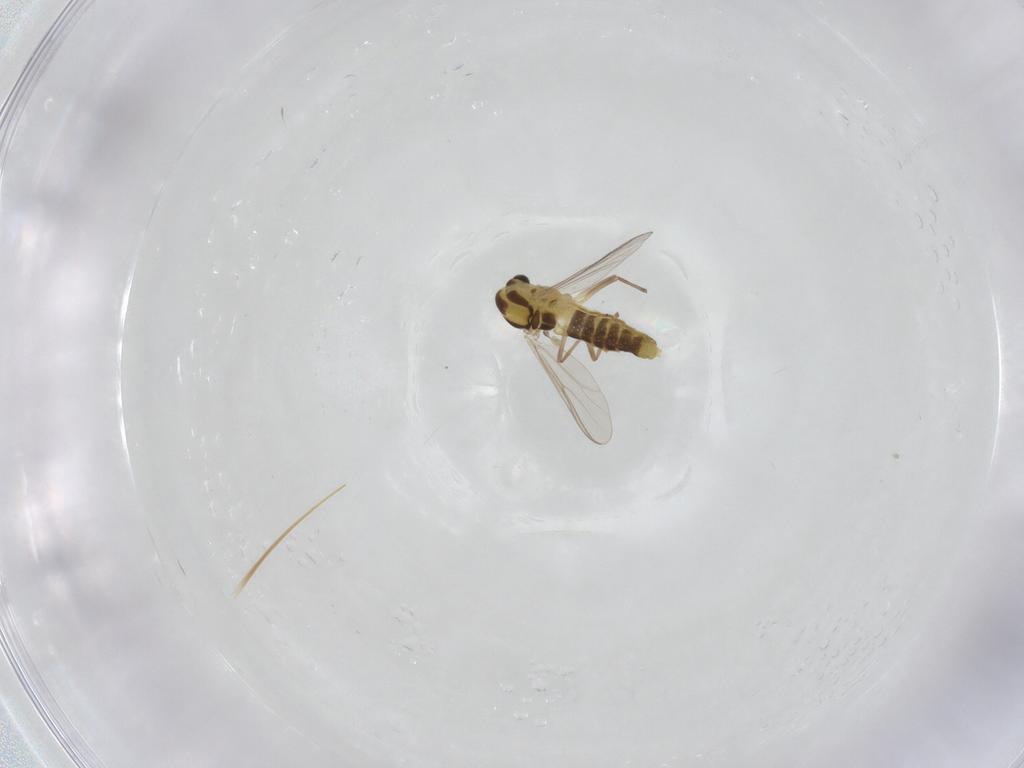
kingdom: Animalia
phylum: Arthropoda
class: Insecta
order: Diptera
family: Chironomidae
